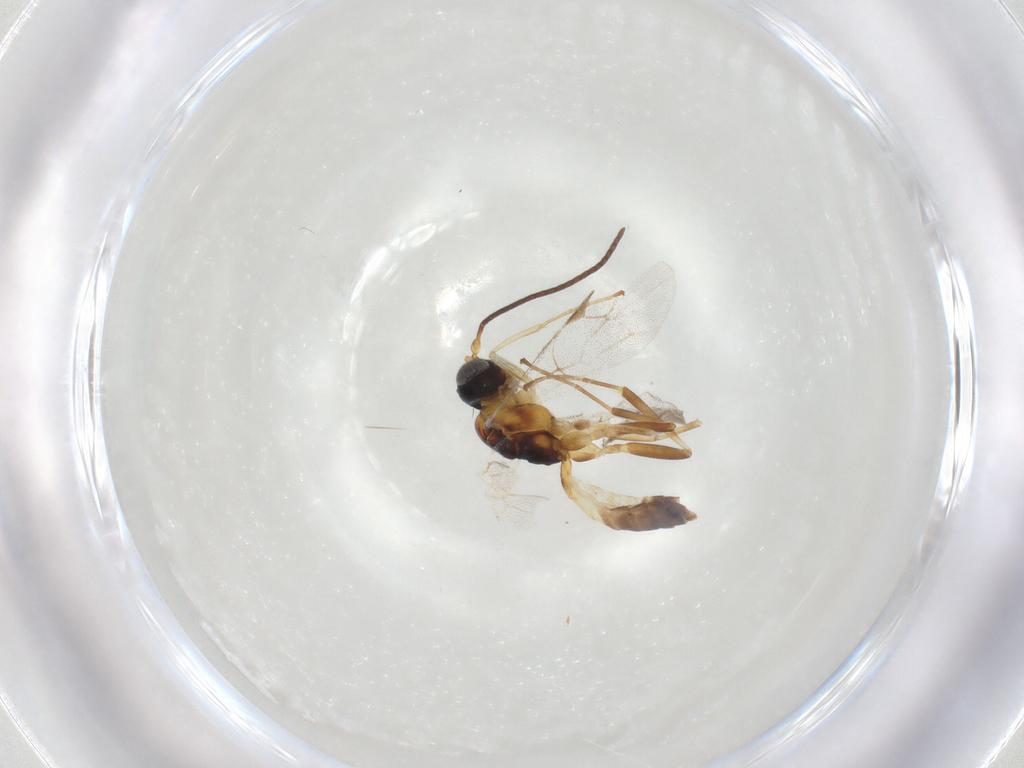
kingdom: Animalia
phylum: Arthropoda
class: Insecta
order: Hymenoptera
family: Ichneumonidae
